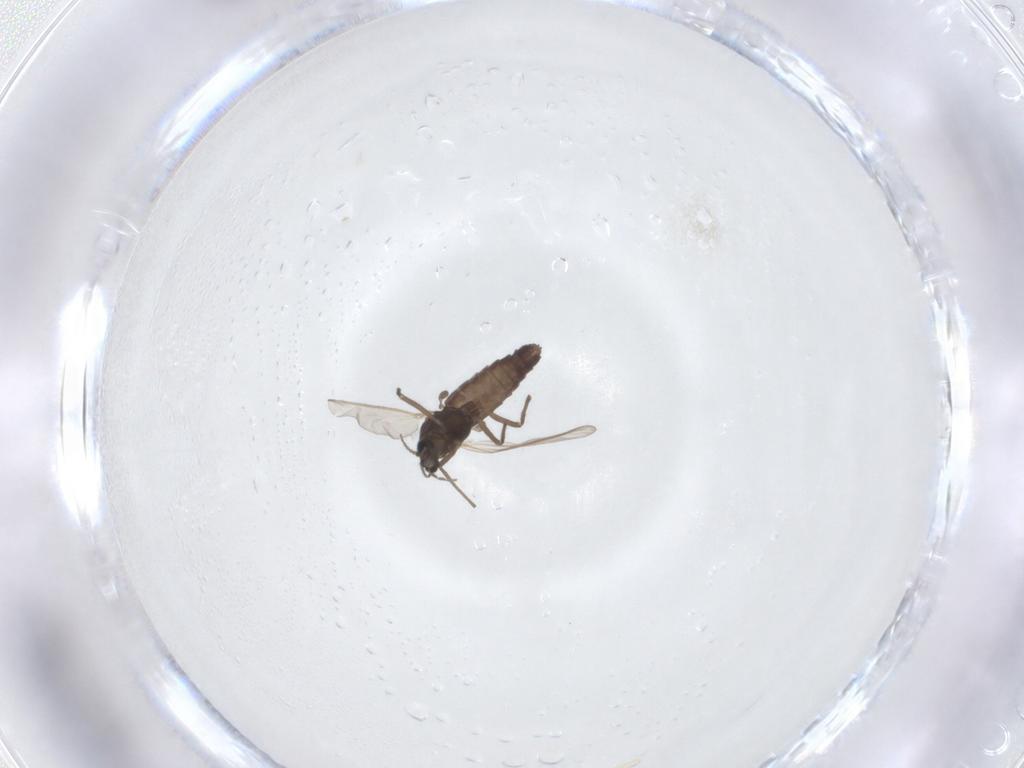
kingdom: Animalia
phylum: Arthropoda
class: Insecta
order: Diptera
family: Chironomidae
